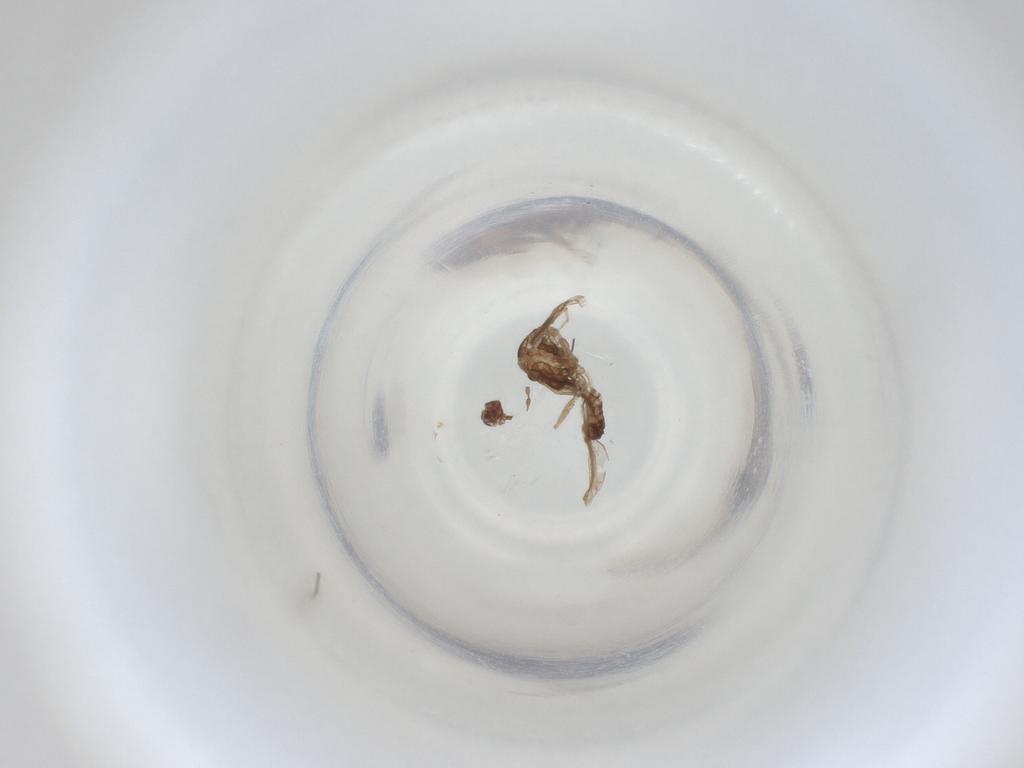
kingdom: Animalia
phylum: Arthropoda
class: Insecta
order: Diptera
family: Cecidomyiidae
